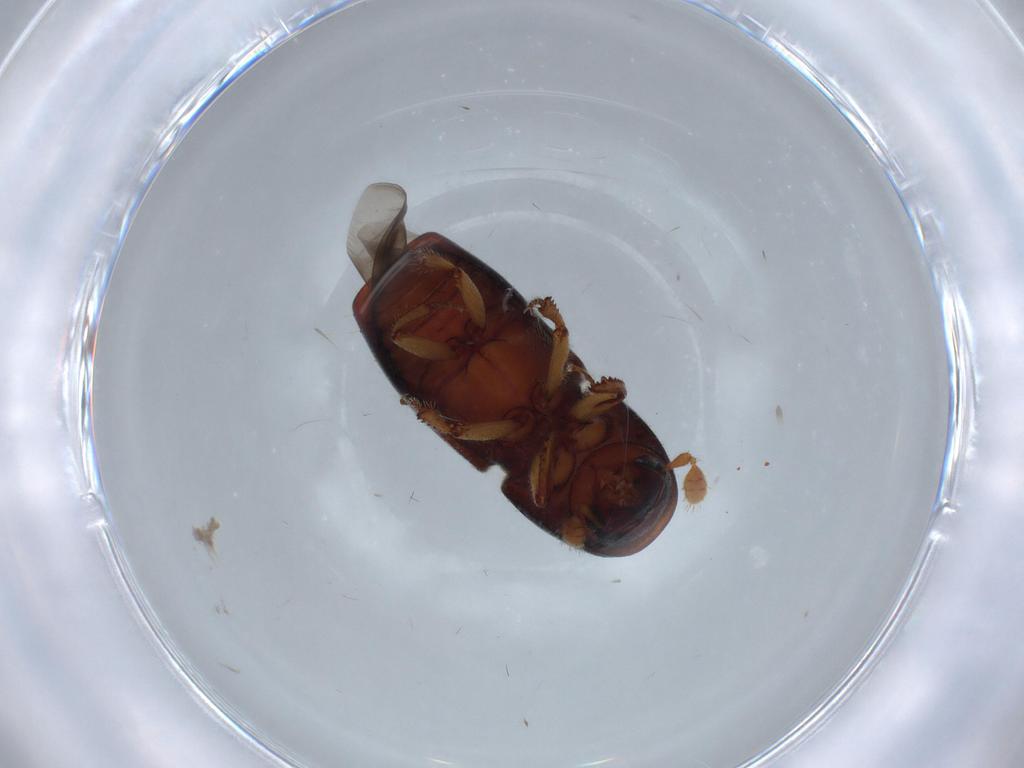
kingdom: Animalia
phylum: Arthropoda
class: Insecta
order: Coleoptera
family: Curculionidae
